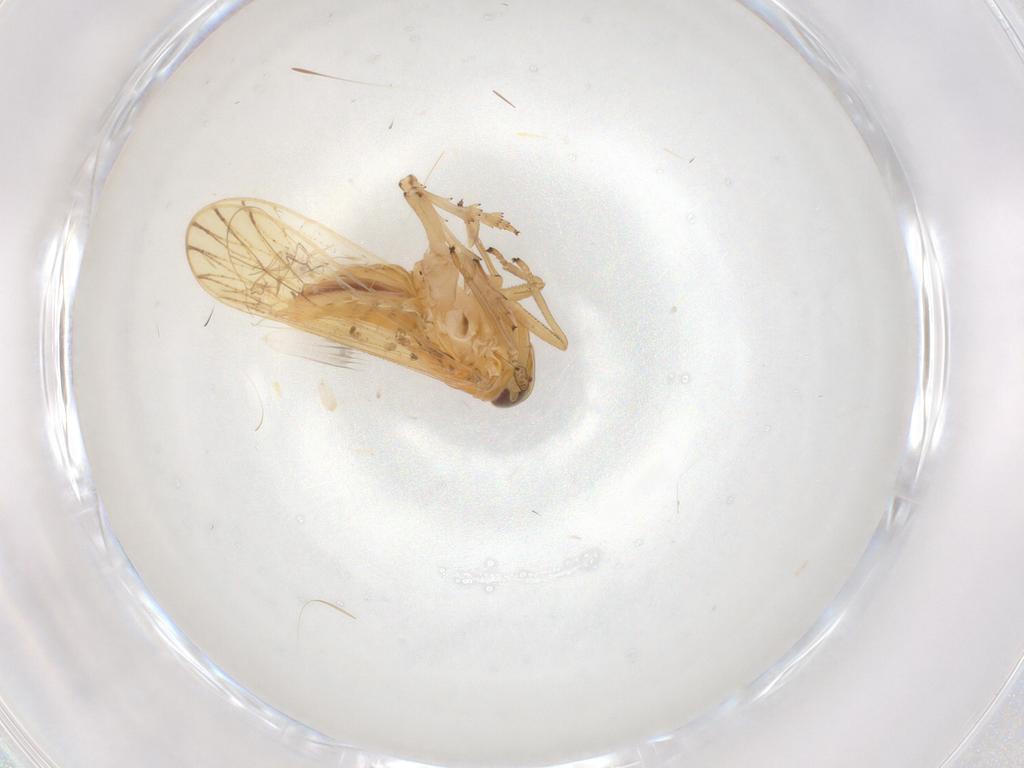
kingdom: Animalia
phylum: Arthropoda
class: Insecta
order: Hemiptera
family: Delphacidae
